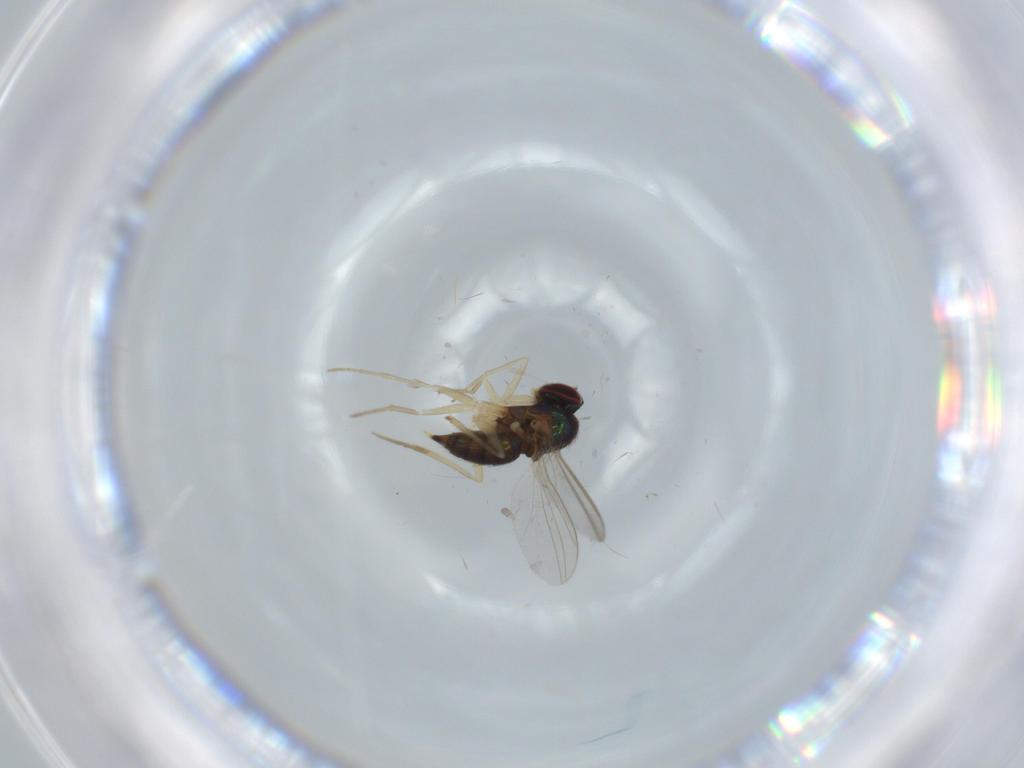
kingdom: Animalia
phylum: Arthropoda
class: Insecta
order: Diptera
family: Dolichopodidae
